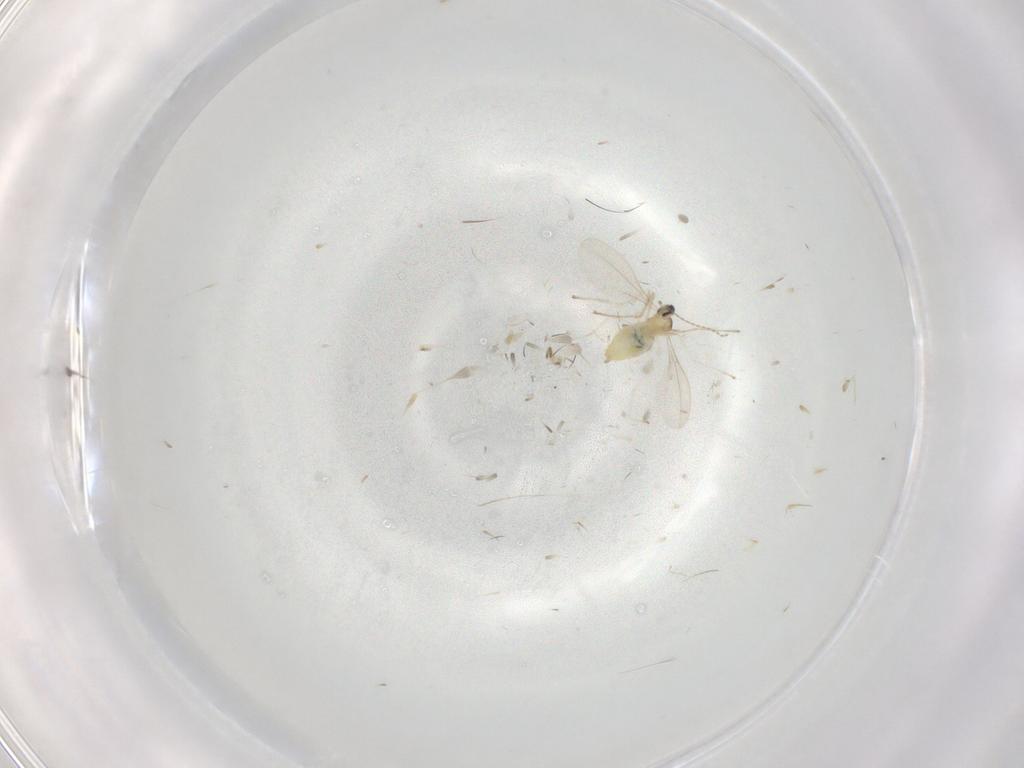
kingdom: Animalia
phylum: Arthropoda
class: Insecta
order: Diptera
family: Cecidomyiidae
